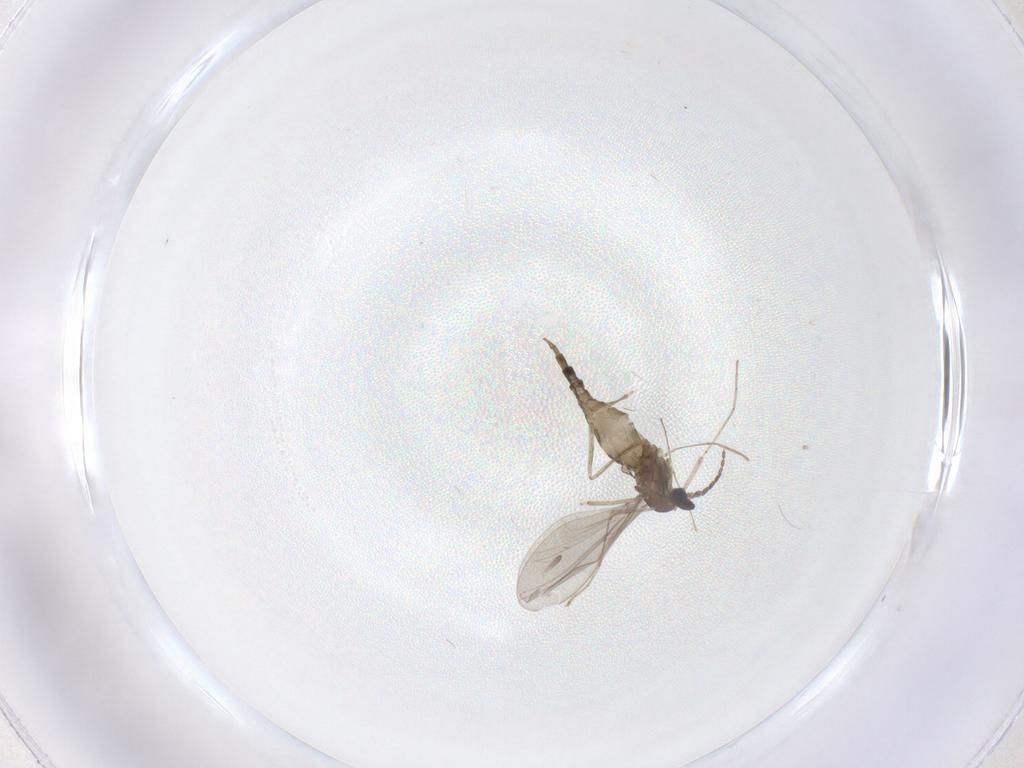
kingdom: Animalia
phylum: Arthropoda
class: Insecta
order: Diptera
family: Cecidomyiidae
